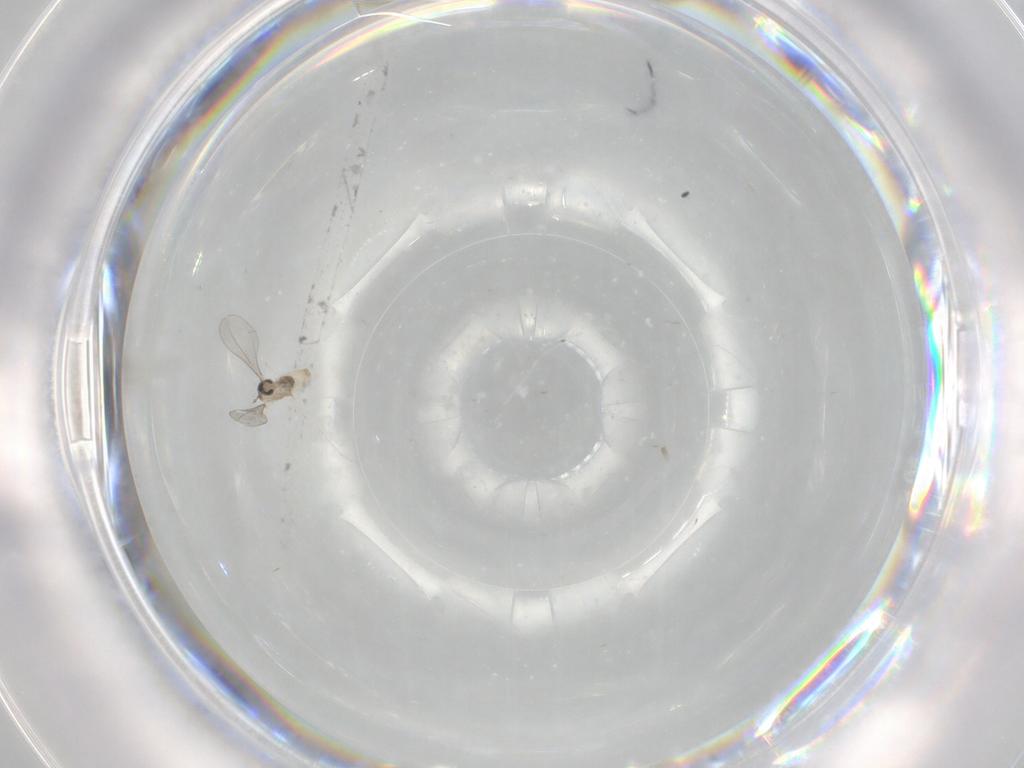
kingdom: Animalia
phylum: Arthropoda
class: Insecta
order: Diptera
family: Cecidomyiidae
